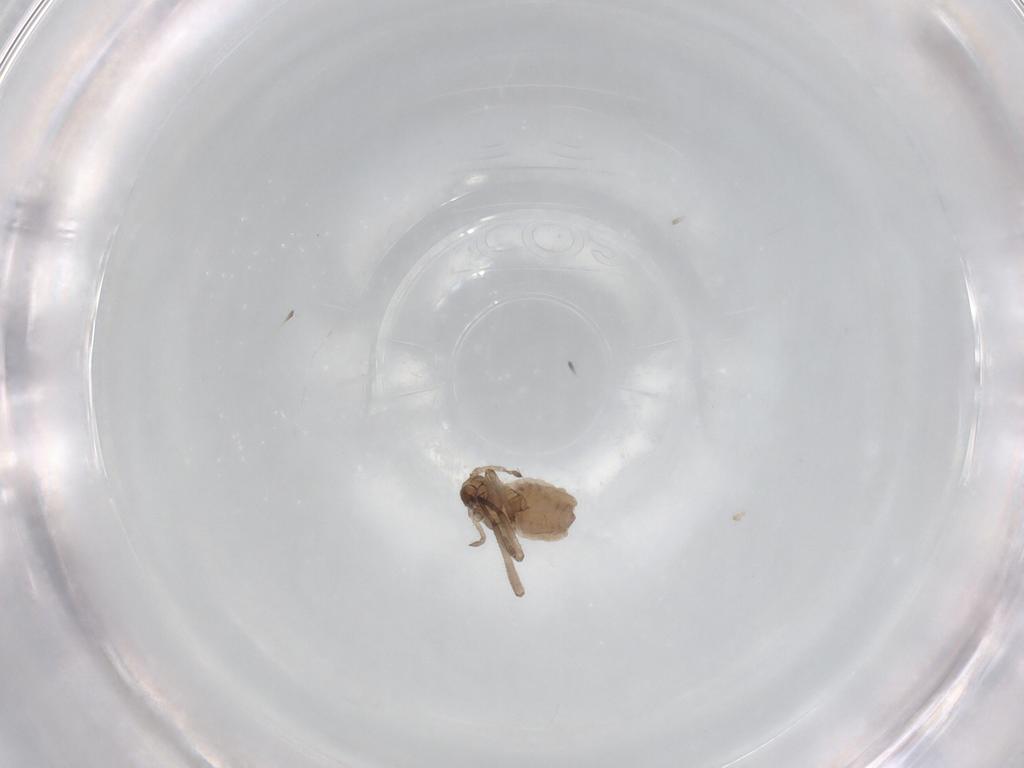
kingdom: Animalia
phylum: Arthropoda
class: Insecta
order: Hemiptera
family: Aphididae
